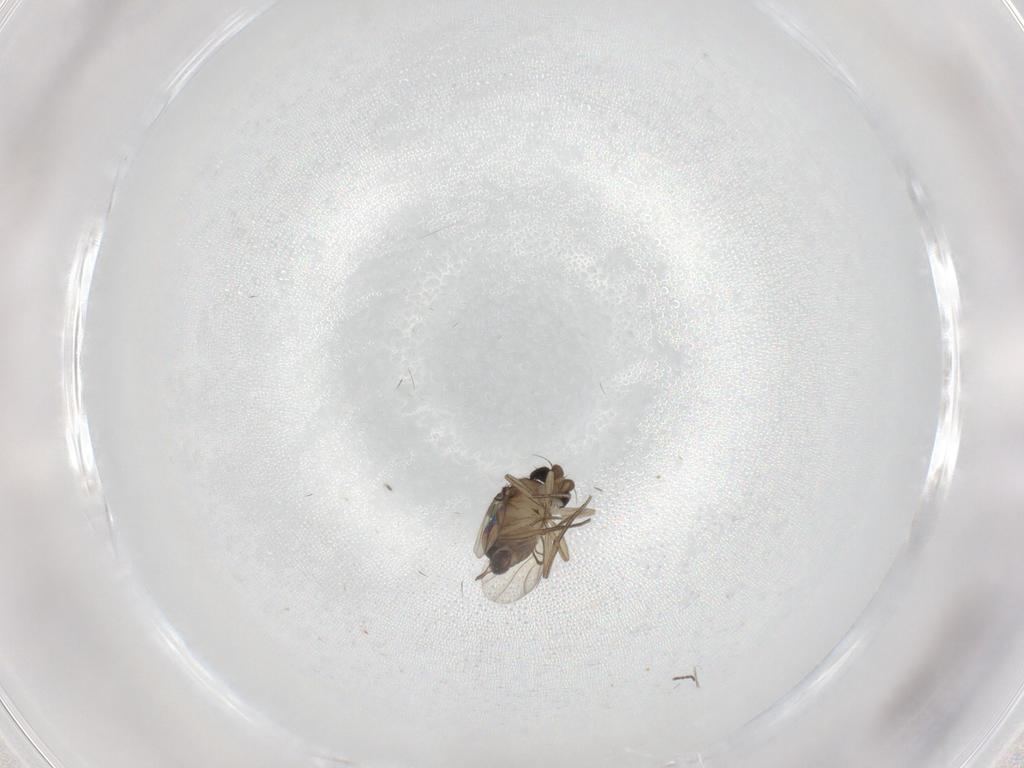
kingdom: Animalia
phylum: Arthropoda
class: Insecta
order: Diptera
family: Cecidomyiidae
